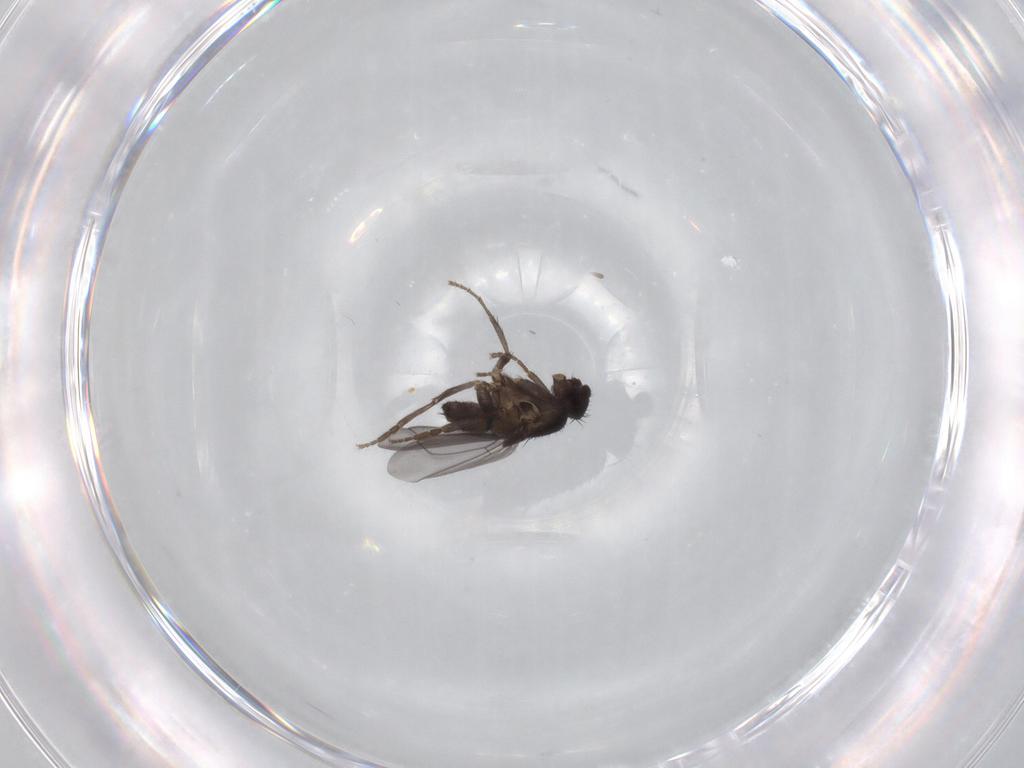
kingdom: Animalia
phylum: Arthropoda
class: Insecta
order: Diptera
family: Sphaeroceridae
